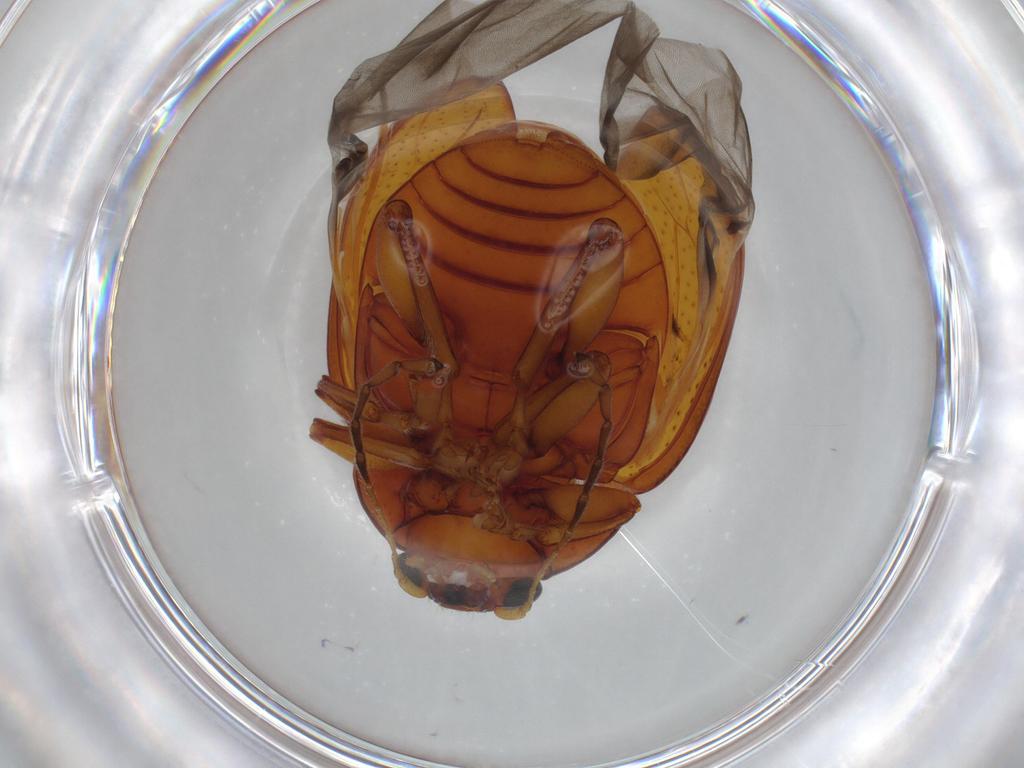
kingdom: Animalia
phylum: Arthropoda
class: Insecta
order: Coleoptera
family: Chrysomelidae
